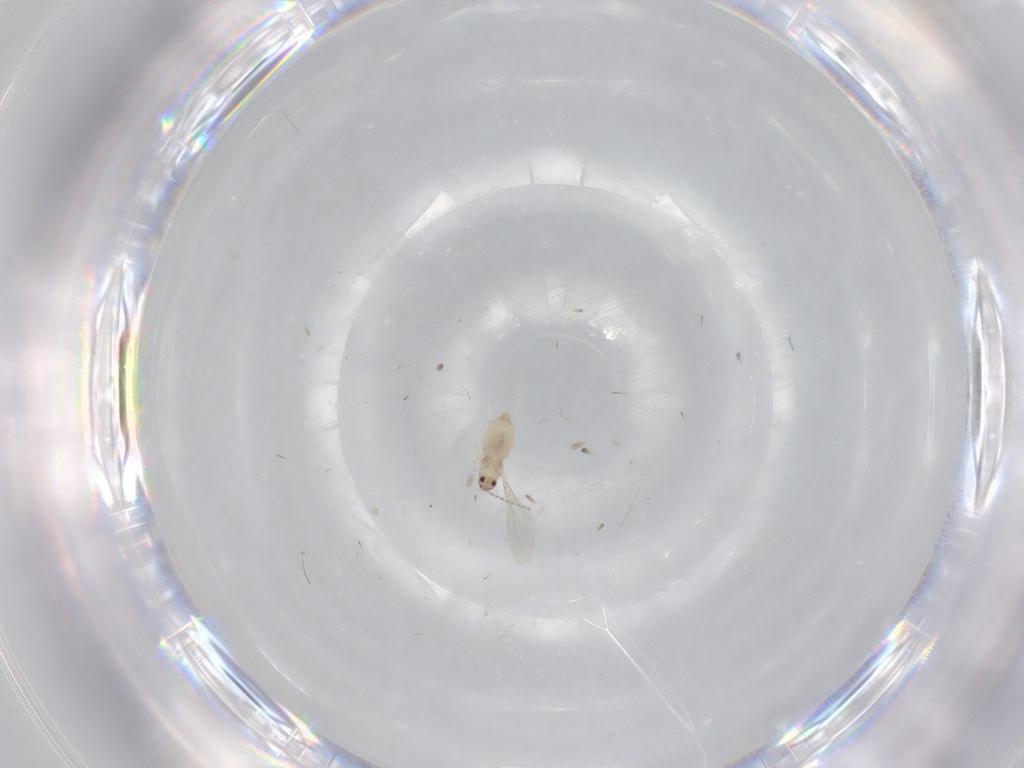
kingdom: Animalia
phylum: Arthropoda
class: Insecta
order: Diptera
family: Cecidomyiidae
